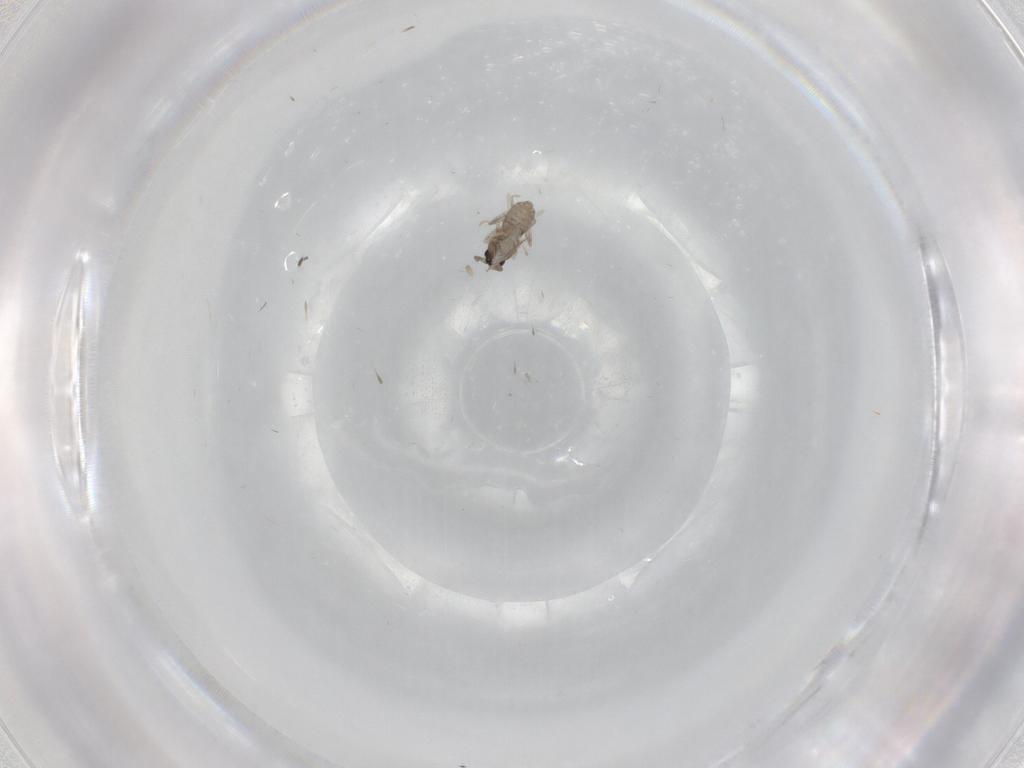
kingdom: Animalia
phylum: Arthropoda
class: Insecta
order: Diptera
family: Cecidomyiidae
